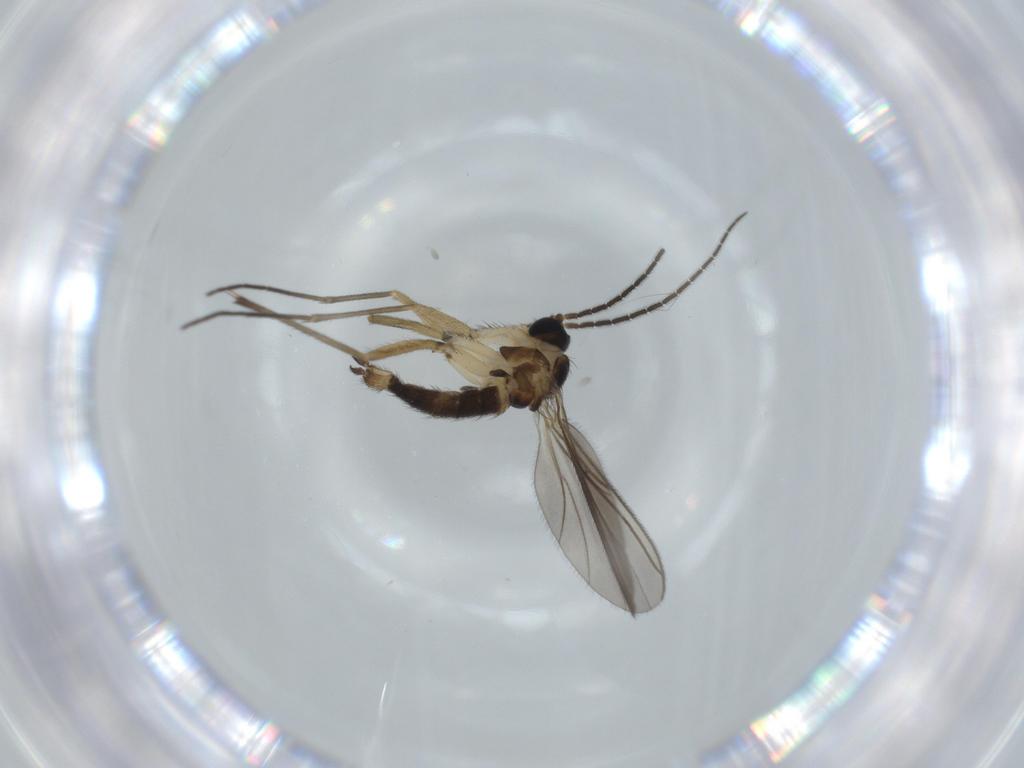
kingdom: Animalia
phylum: Arthropoda
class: Insecta
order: Diptera
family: Sciaridae
